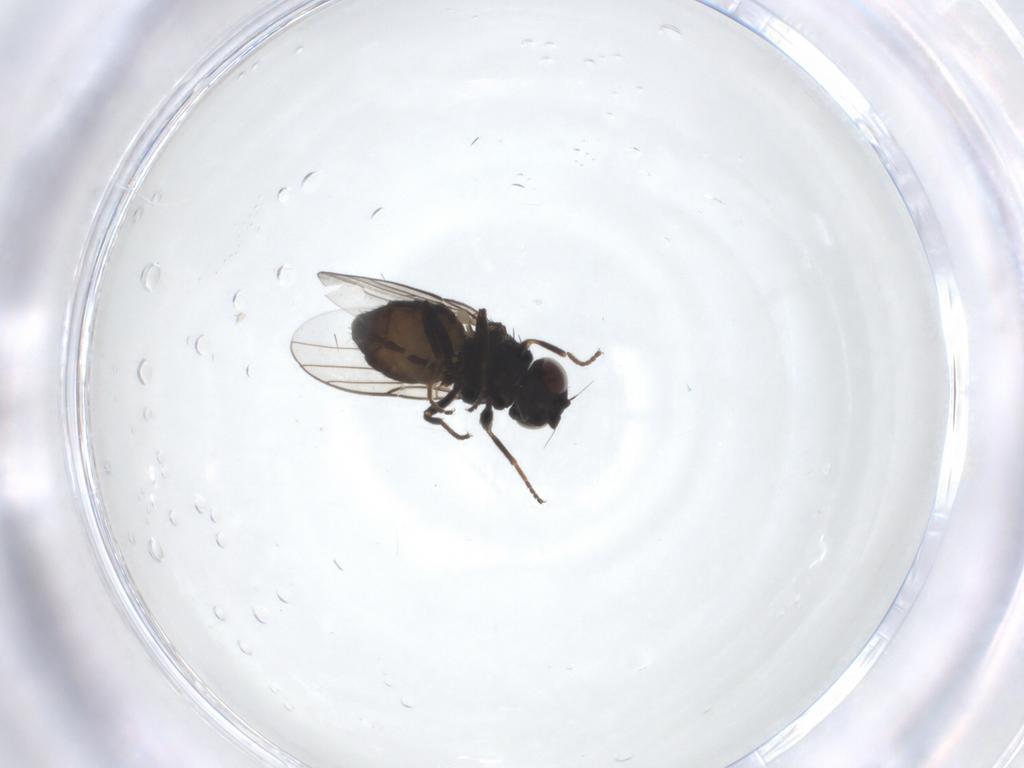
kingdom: Animalia
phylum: Arthropoda
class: Insecta
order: Diptera
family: Chloropidae
